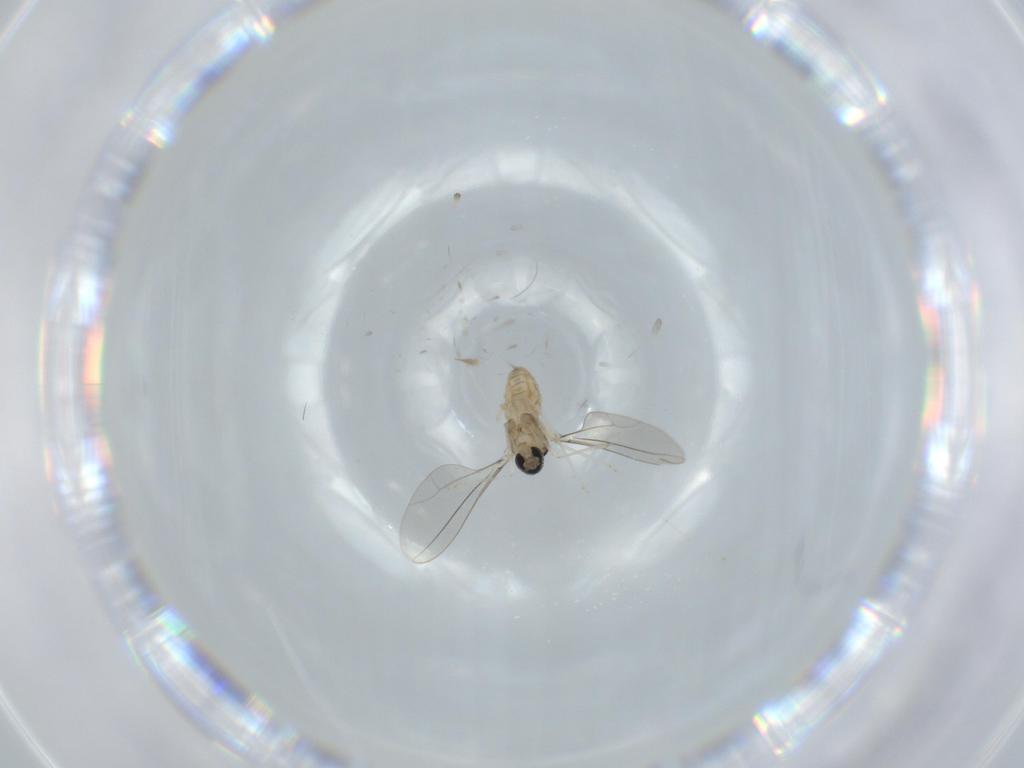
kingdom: Animalia
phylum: Arthropoda
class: Insecta
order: Diptera
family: Cecidomyiidae
